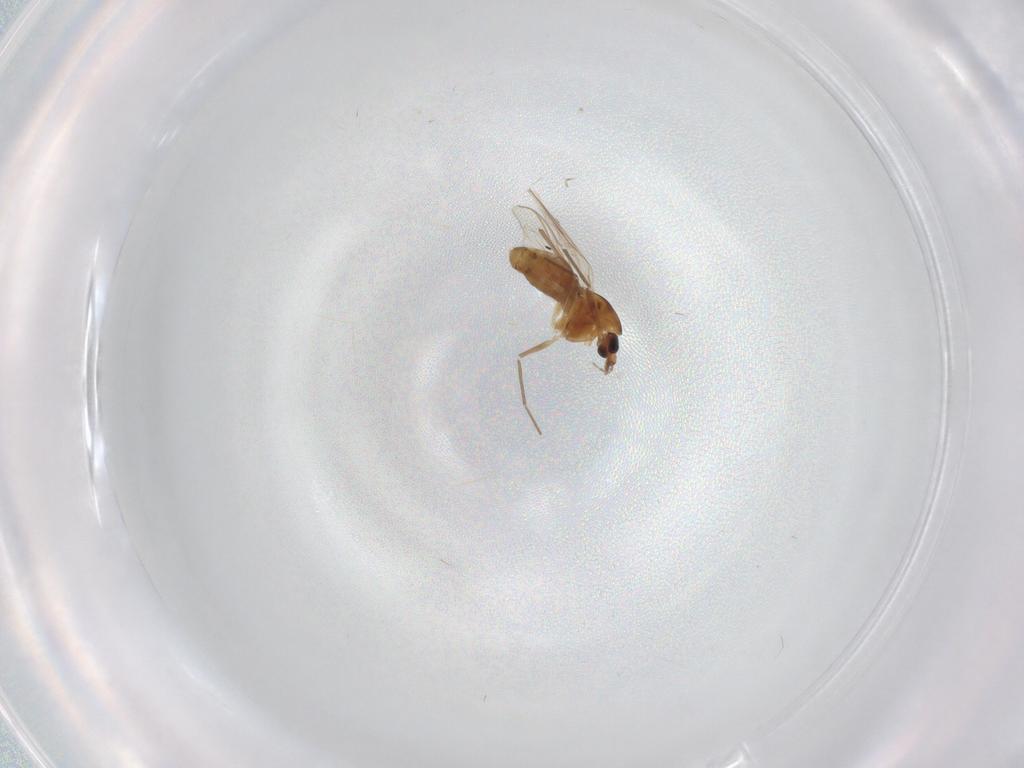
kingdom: Animalia
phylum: Arthropoda
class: Insecta
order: Diptera
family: Chironomidae
